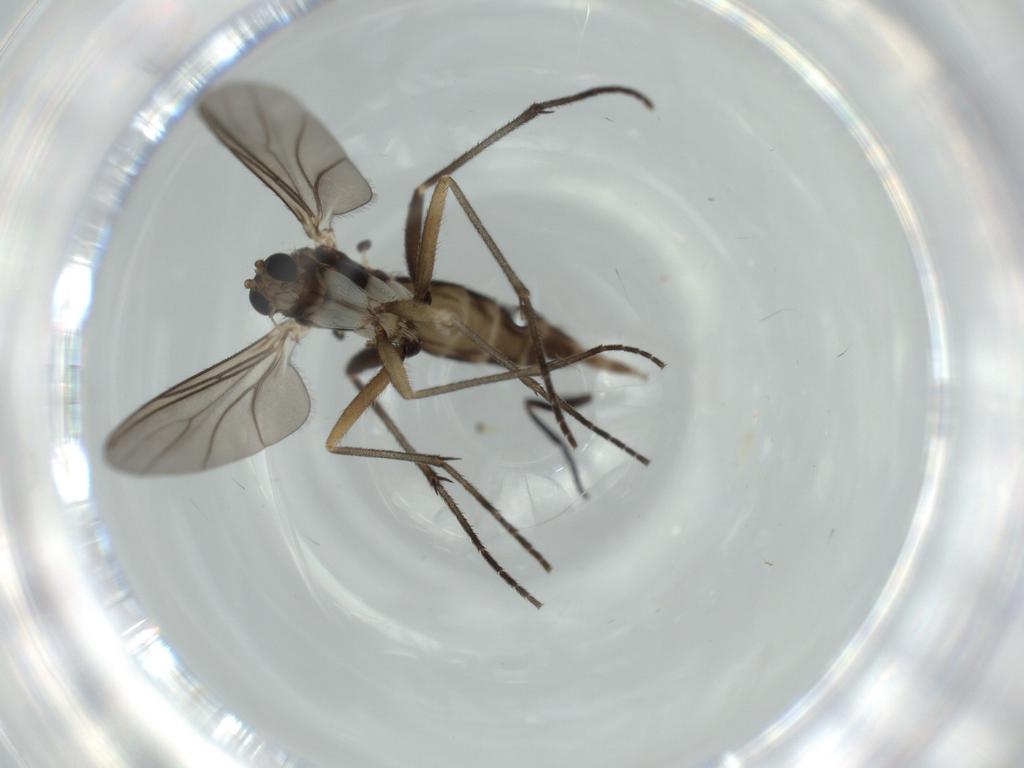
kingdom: Animalia
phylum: Arthropoda
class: Insecta
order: Diptera
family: Sciaridae
